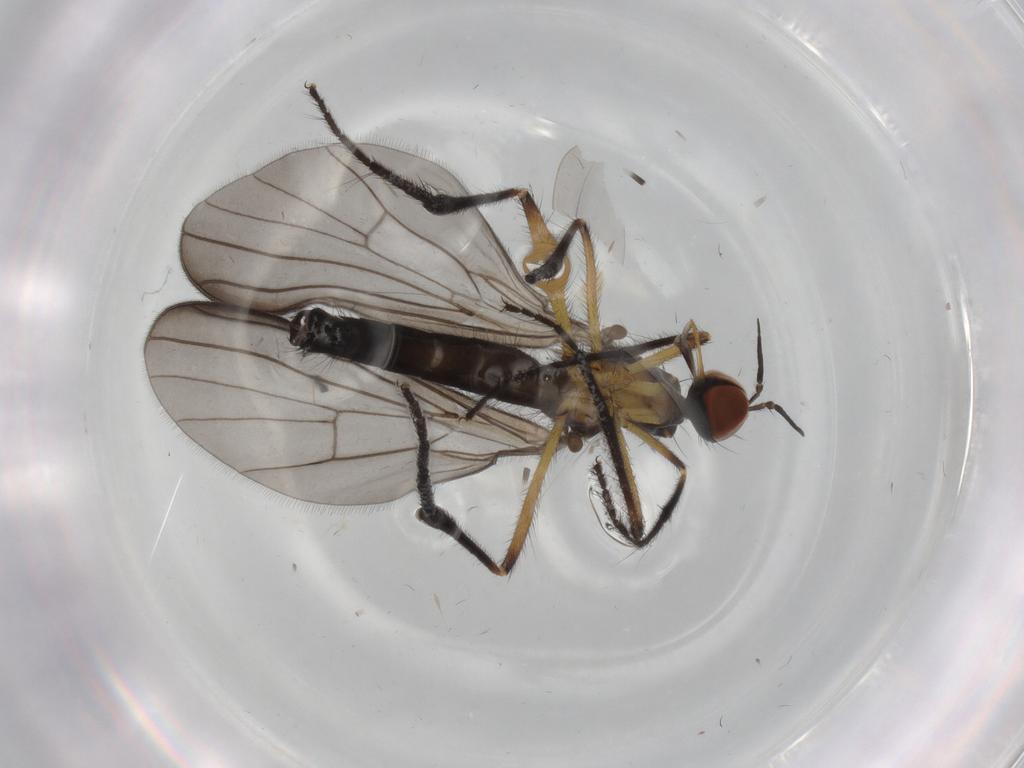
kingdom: Animalia
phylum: Arthropoda
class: Insecta
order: Diptera
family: Empididae
